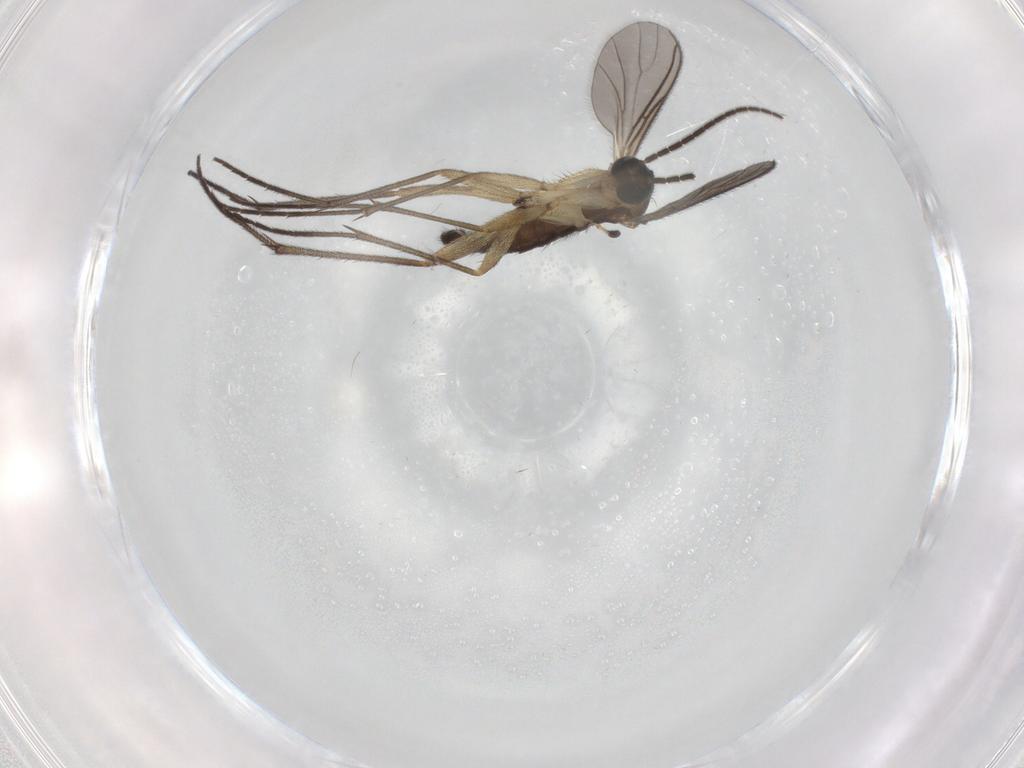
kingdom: Animalia
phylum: Arthropoda
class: Insecta
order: Diptera
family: Sciaridae
